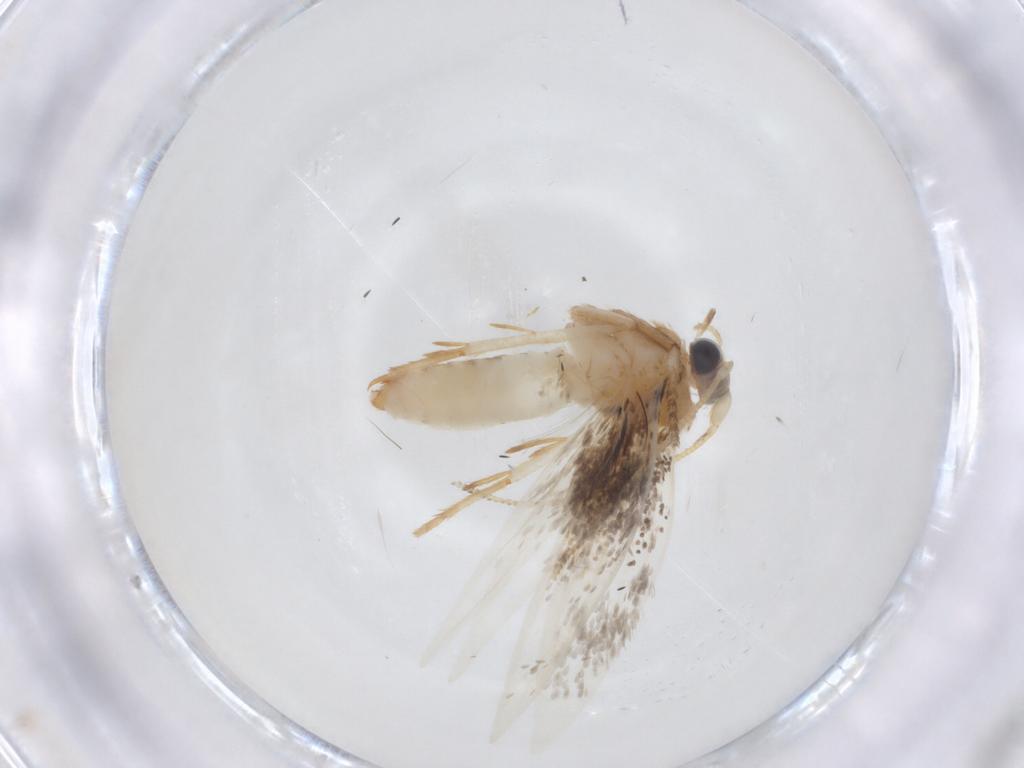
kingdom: Animalia
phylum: Arthropoda
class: Insecta
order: Lepidoptera
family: Nepticulidae
